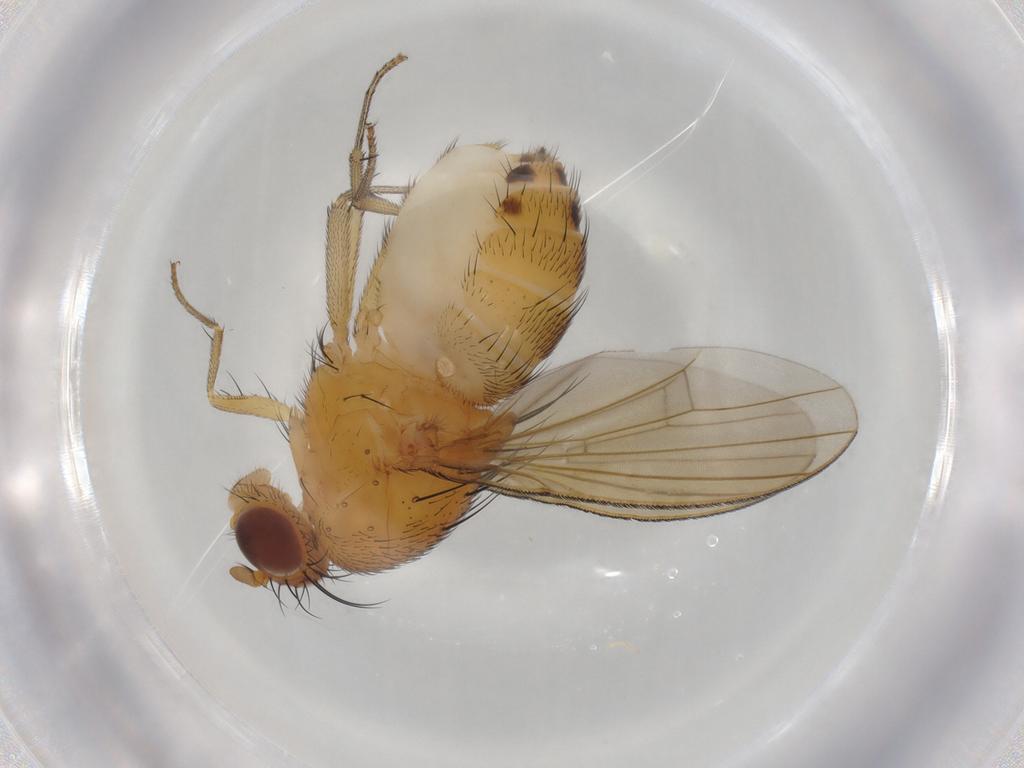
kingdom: Animalia
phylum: Arthropoda
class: Insecta
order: Diptera
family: Lauxaniidae
